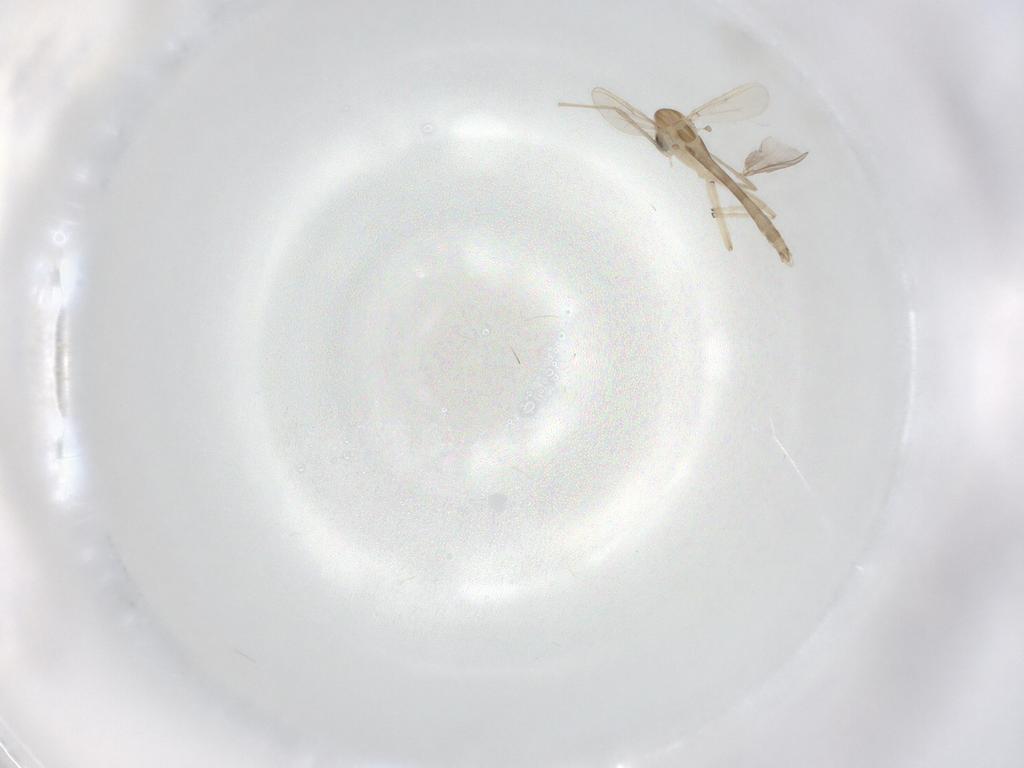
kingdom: Animalia
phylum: Arthropoda
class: Insecta
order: Diptera
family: Chironomidae
